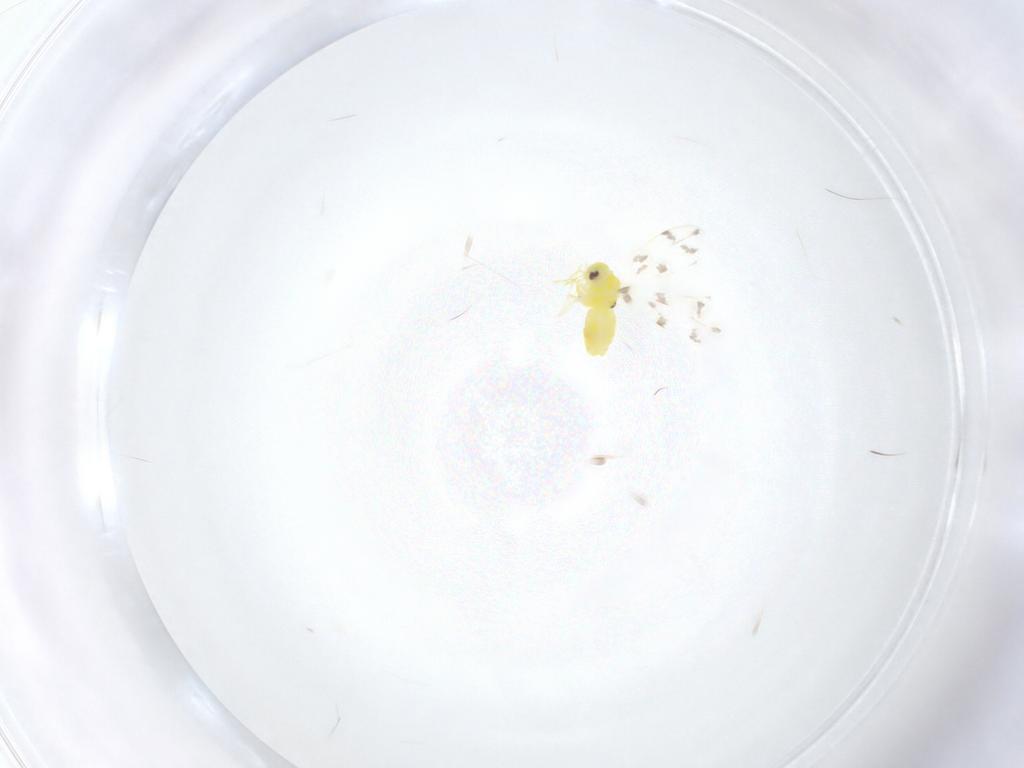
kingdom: Animalia
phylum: Arthropoda
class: Insecta
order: Hemiptera
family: Aleyrodidae
